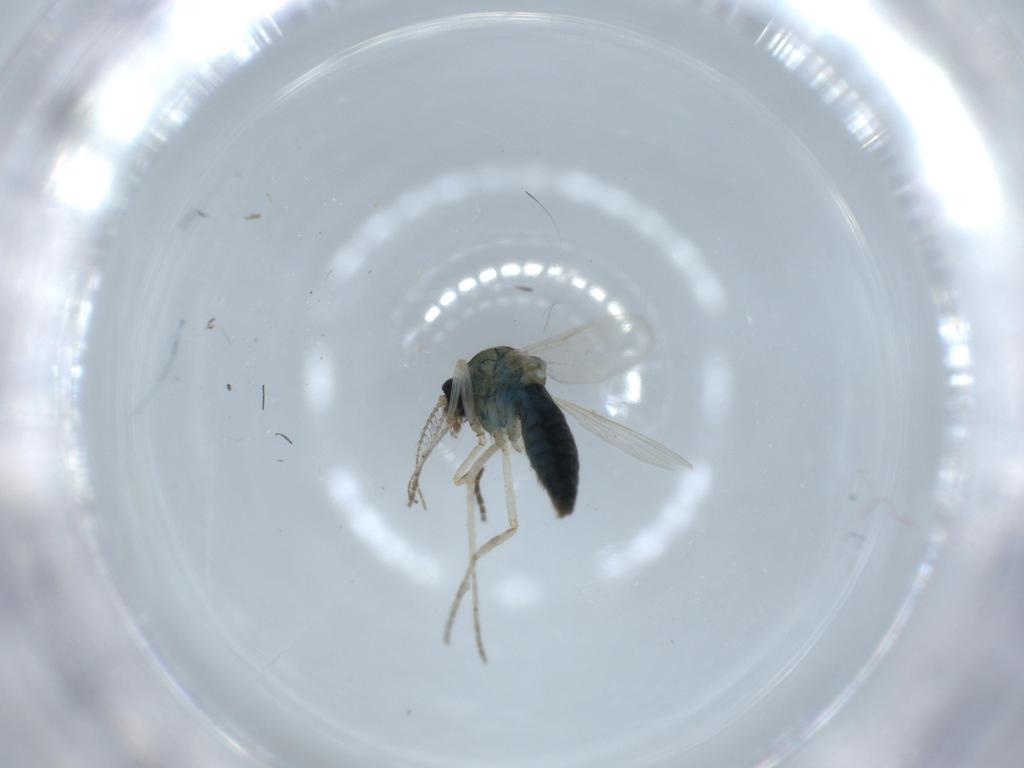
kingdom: Animalia
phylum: Arthropoda
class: Insecta
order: Diptera
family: Ceratopogonidae
